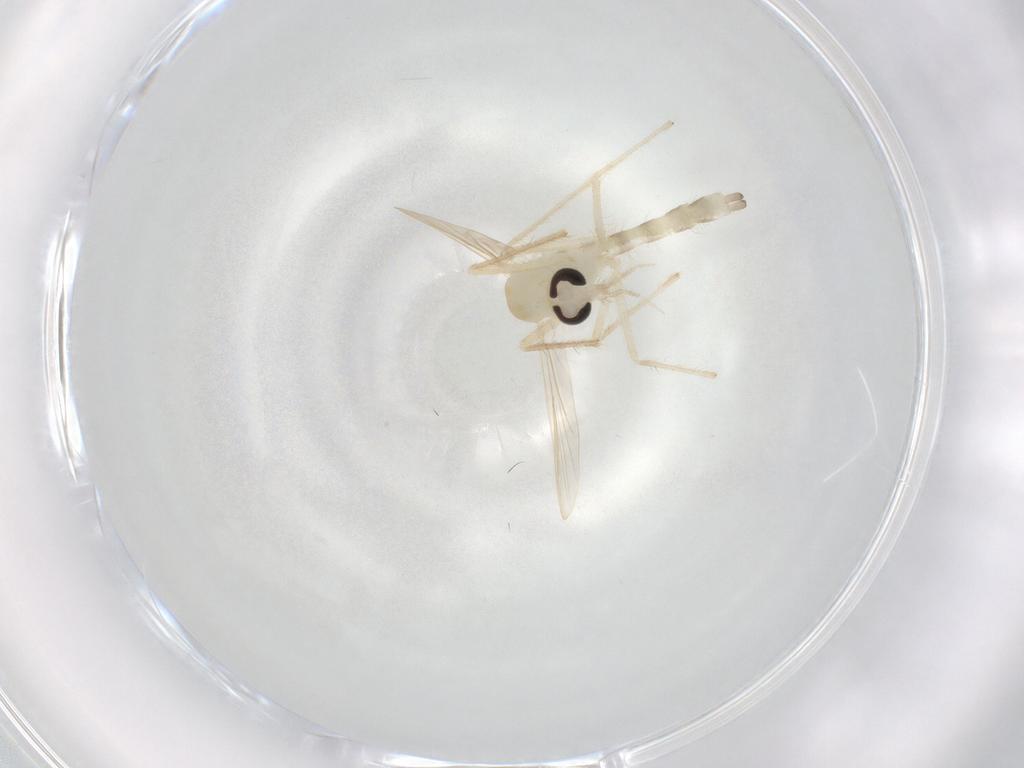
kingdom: Animalia
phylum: Arthropoda
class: Insecta
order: Diptera
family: Chironomidae
